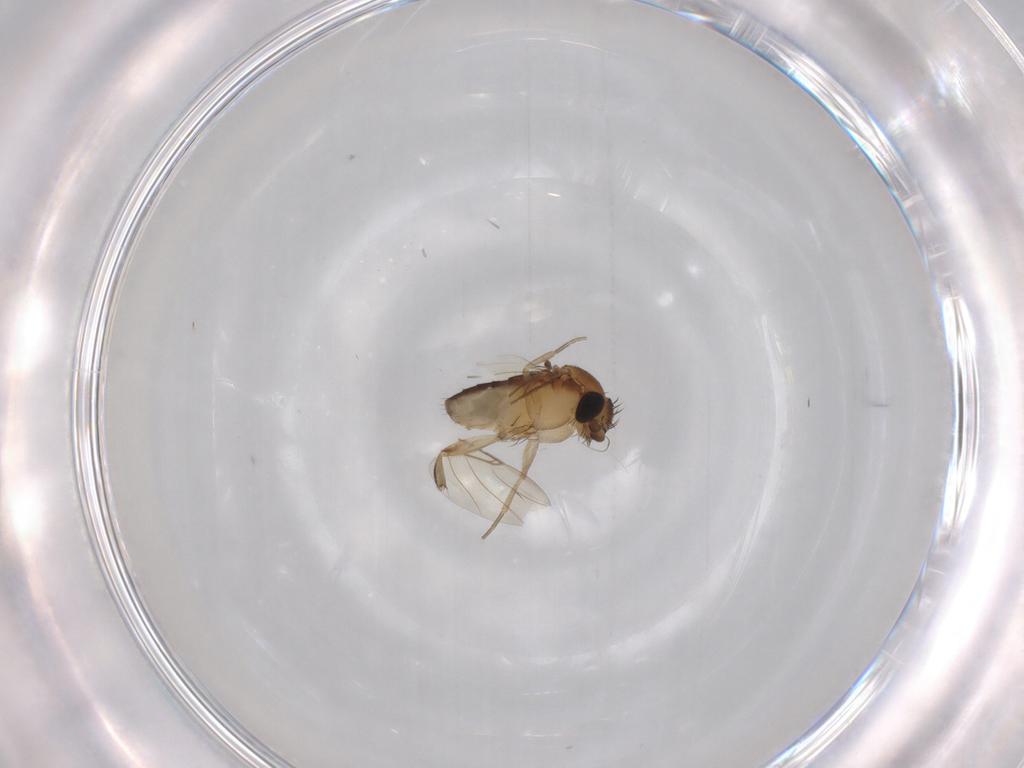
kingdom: Animalia
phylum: Arthropoda
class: Insecta
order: Diptera
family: Phoridae
